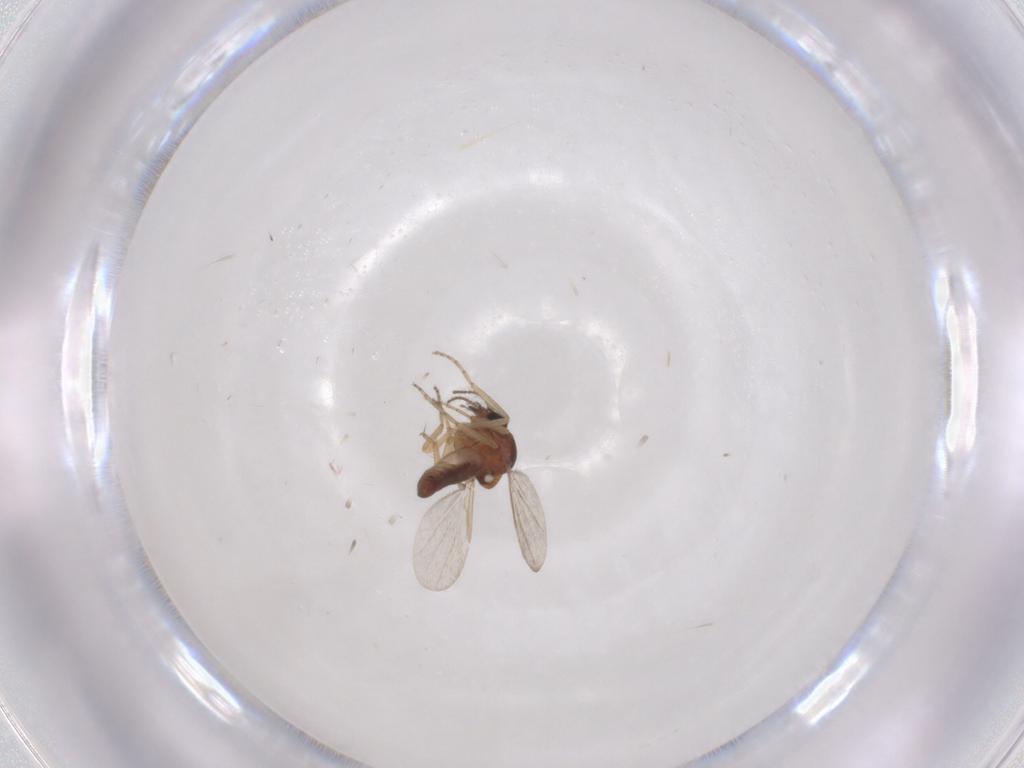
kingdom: Animalia
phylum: Arthropoda
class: Insecta
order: Diptera
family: Ceratopogonidae
